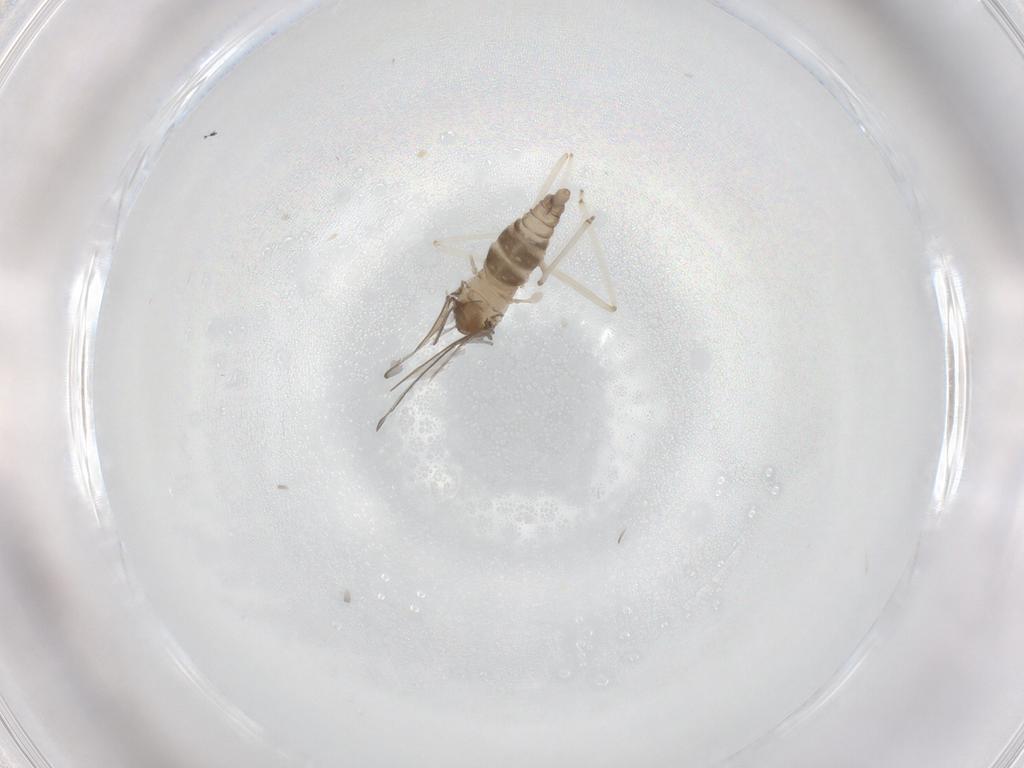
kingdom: Animalia
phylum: Arthropoda
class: Insecta
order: Diptera
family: Cecidomyiidae
